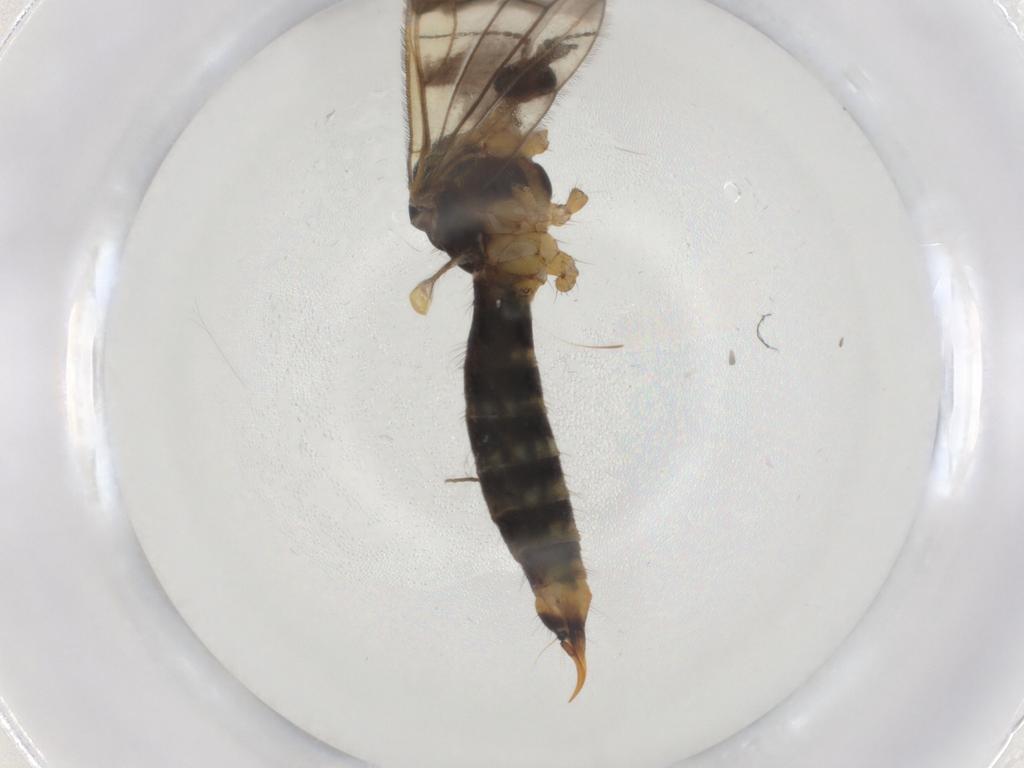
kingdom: Animalia
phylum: Arthropoda
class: Insecta
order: Diptera
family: Limoniidae
